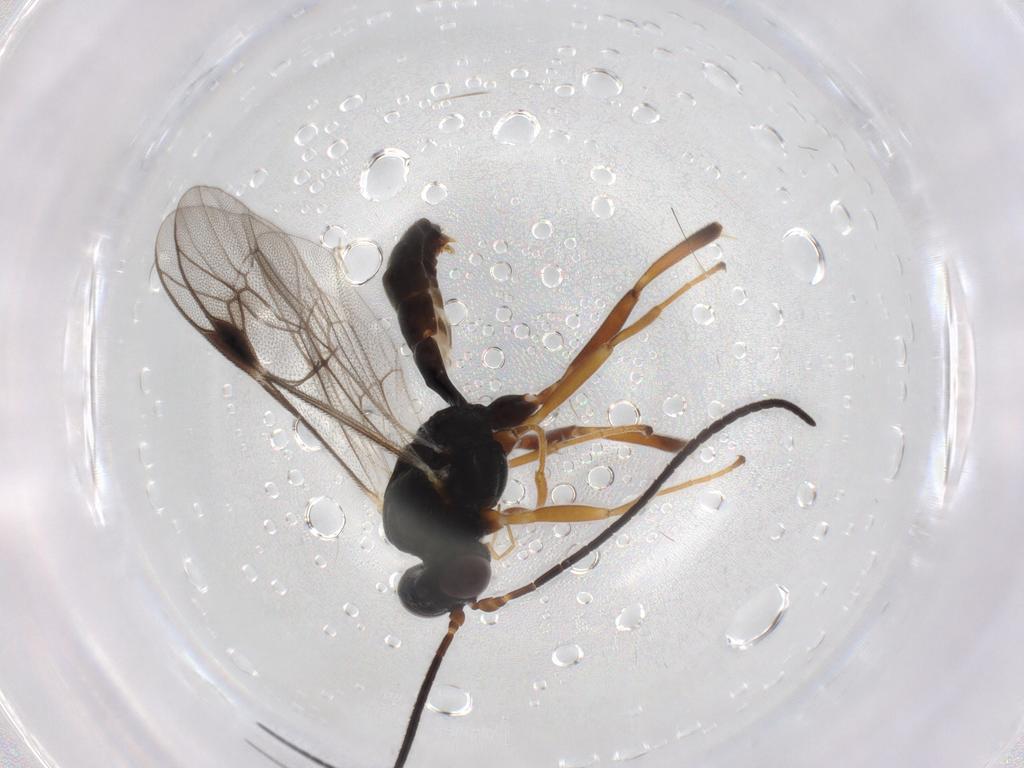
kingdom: Animalia
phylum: Arthropoda
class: Insecta
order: Hymenoptera
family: Ichneumonidae
